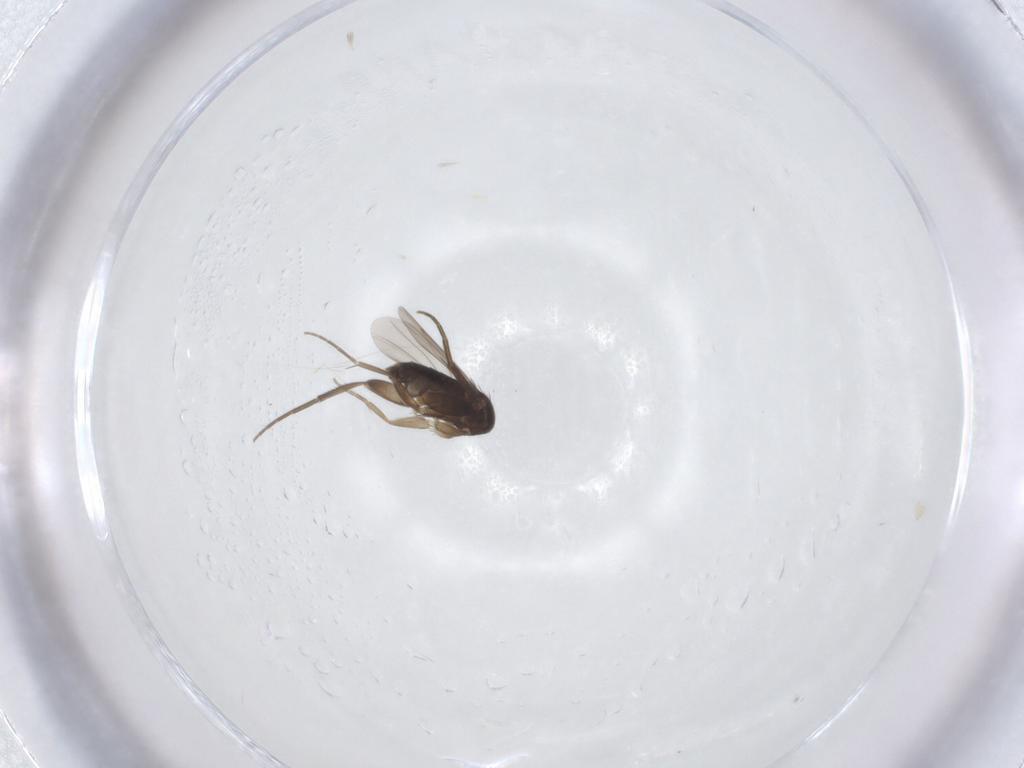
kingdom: Animalia
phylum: Arthropoda
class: Insecta
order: Diptera
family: Phoridae
